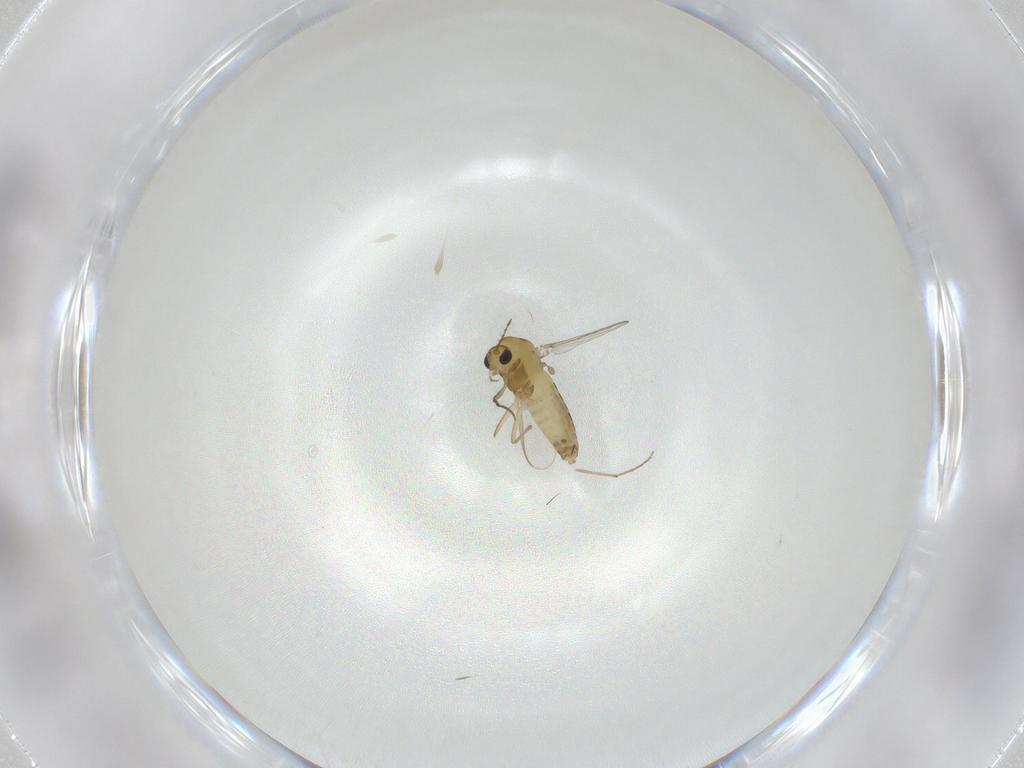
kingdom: Animalia
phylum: Arthropoda
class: Insecta
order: Diptera
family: Chironomidae
